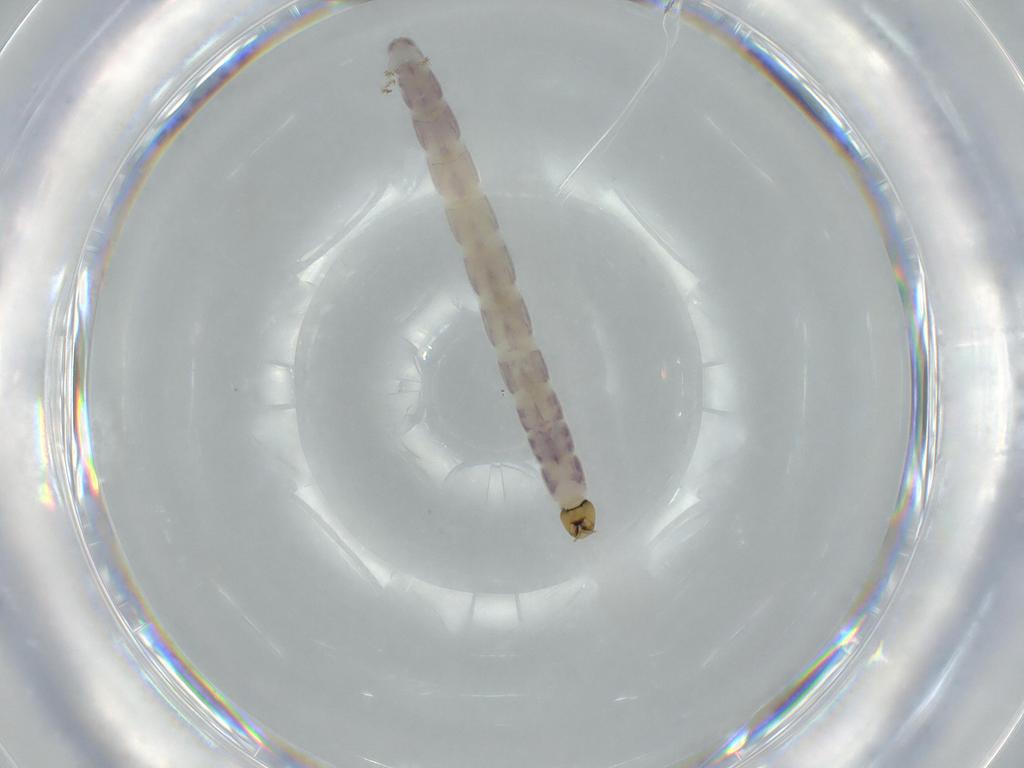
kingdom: Animalia
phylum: Arthropoda
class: Insecta
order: Diptera
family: Chironomidae
